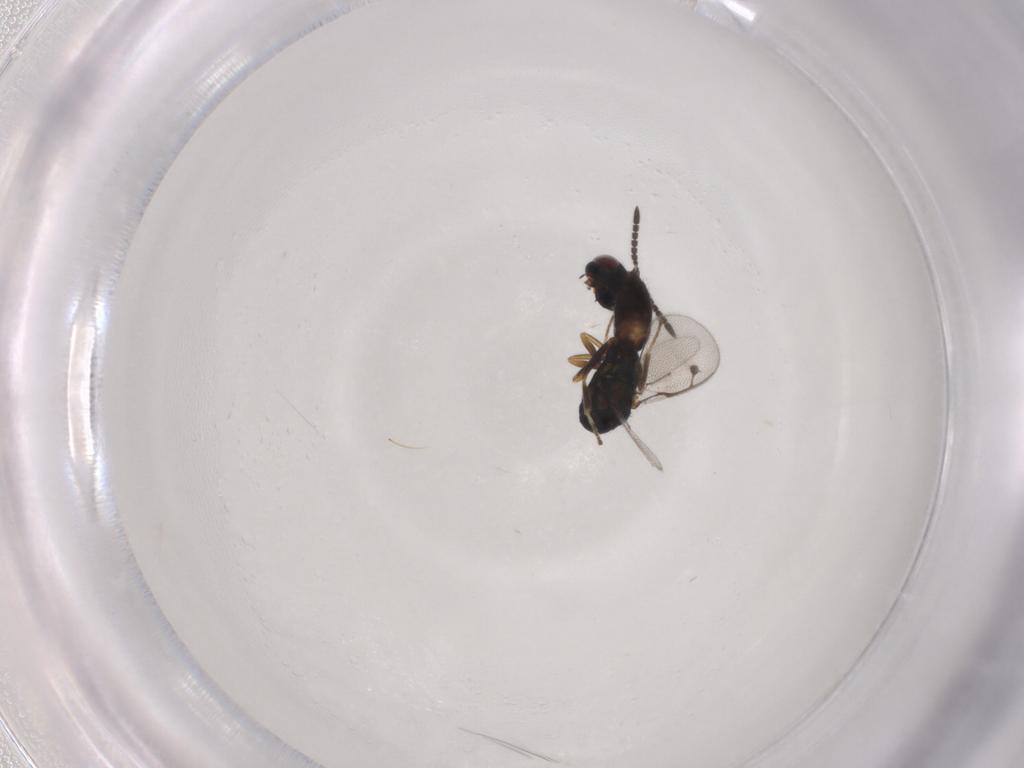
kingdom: Animalia
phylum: Arthropoda
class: Insecta
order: Hymenoptera
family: Pteromalidae
